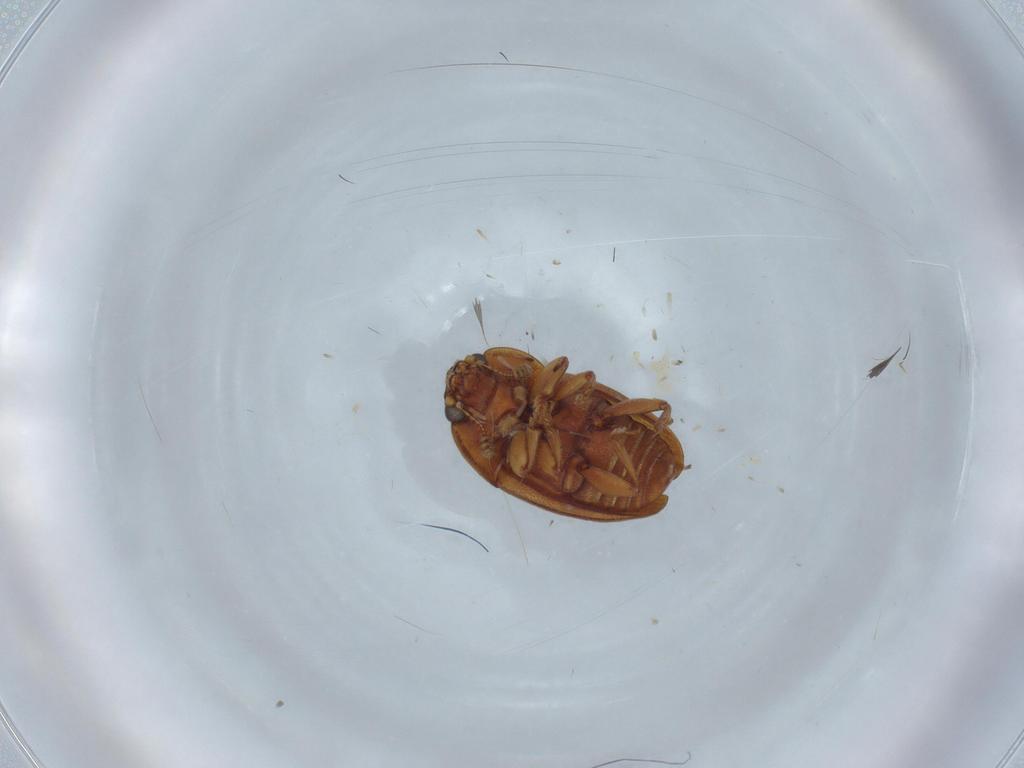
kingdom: Animalia
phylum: Arthropoda
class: Insecta
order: Coleoptera
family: Nitidulidae
